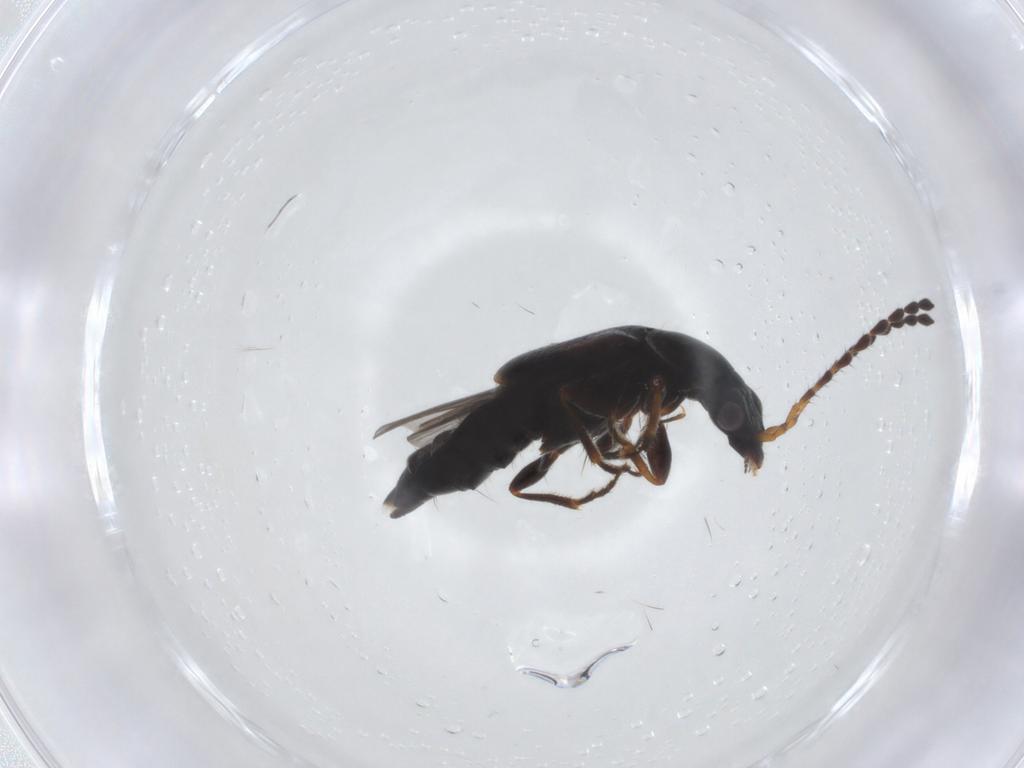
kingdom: Animalia
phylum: Arthropoda
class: Insecta
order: Coleoptera
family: Staphylinidae
